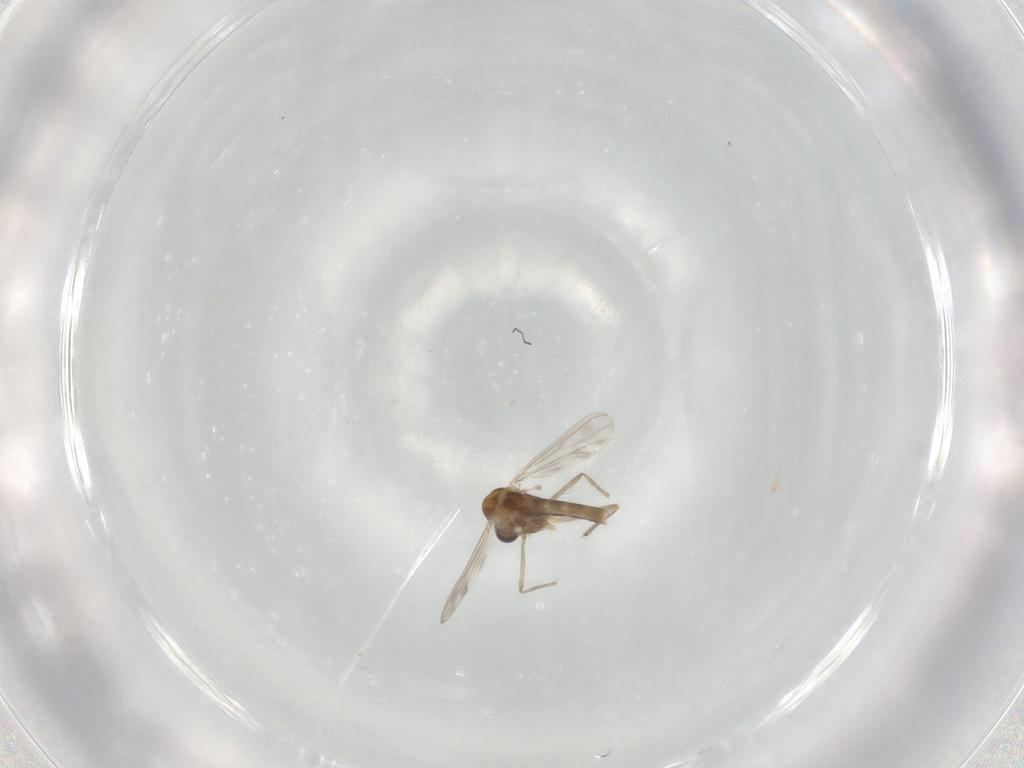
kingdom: Animalia
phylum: Arthropoda
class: Insecta
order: Diptera
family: Chironomidae
